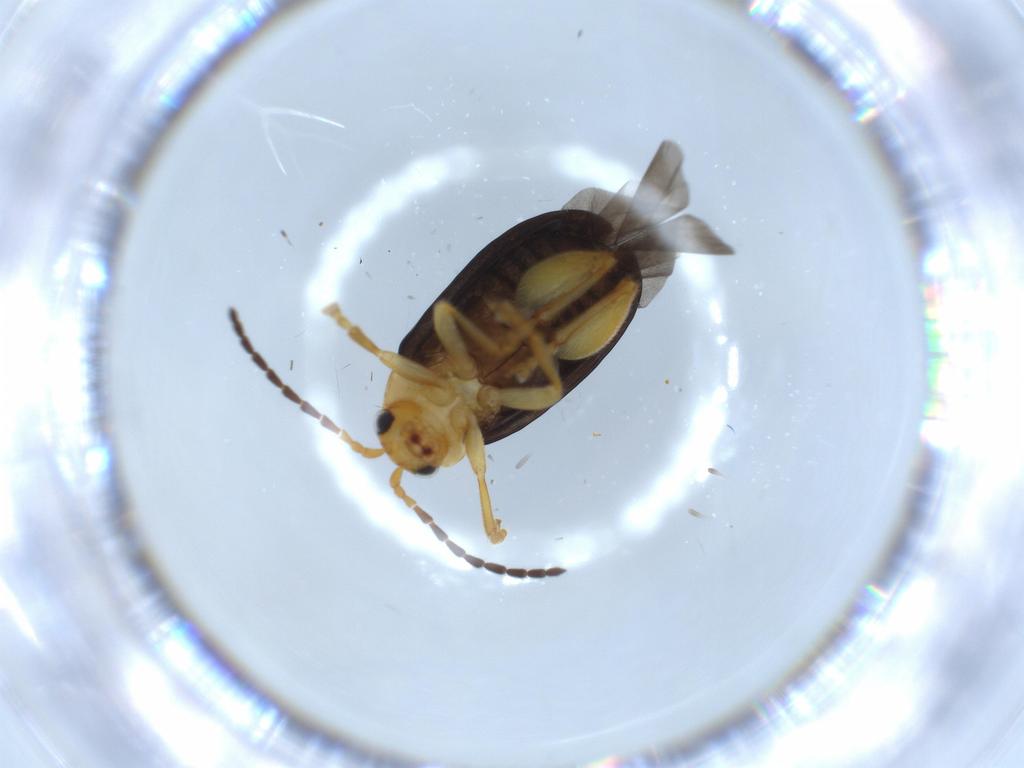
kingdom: Animalia
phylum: Arthropoda
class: Insecta
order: Coleoptera
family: Chrysomelidae
